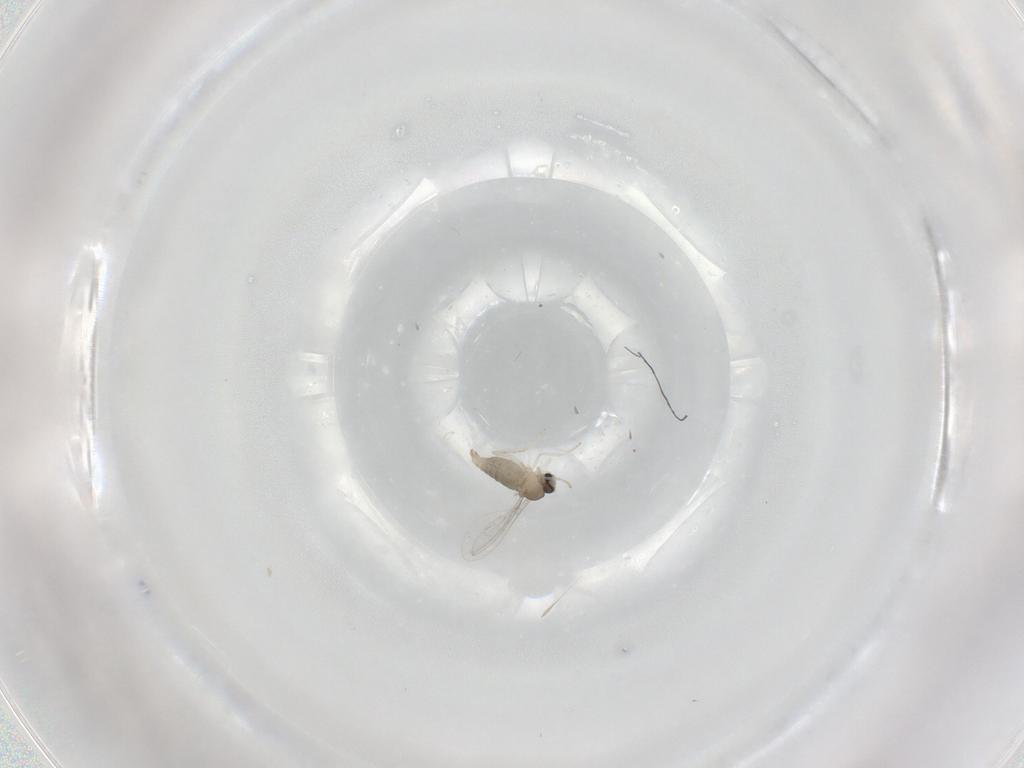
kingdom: Animalia
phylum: Arthropoda
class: Insecta
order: Diptera
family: Cecidomyiidae
